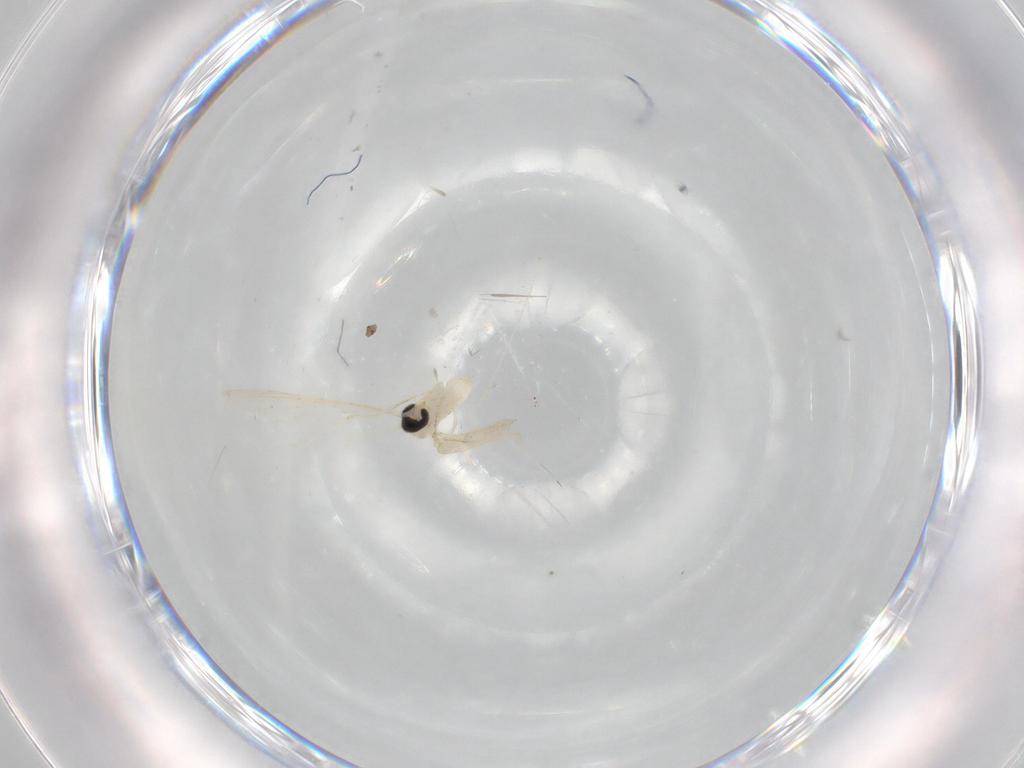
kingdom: Animalia
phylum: Arthropoda
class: Insecta
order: Diptera
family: Cecidomyiidae
